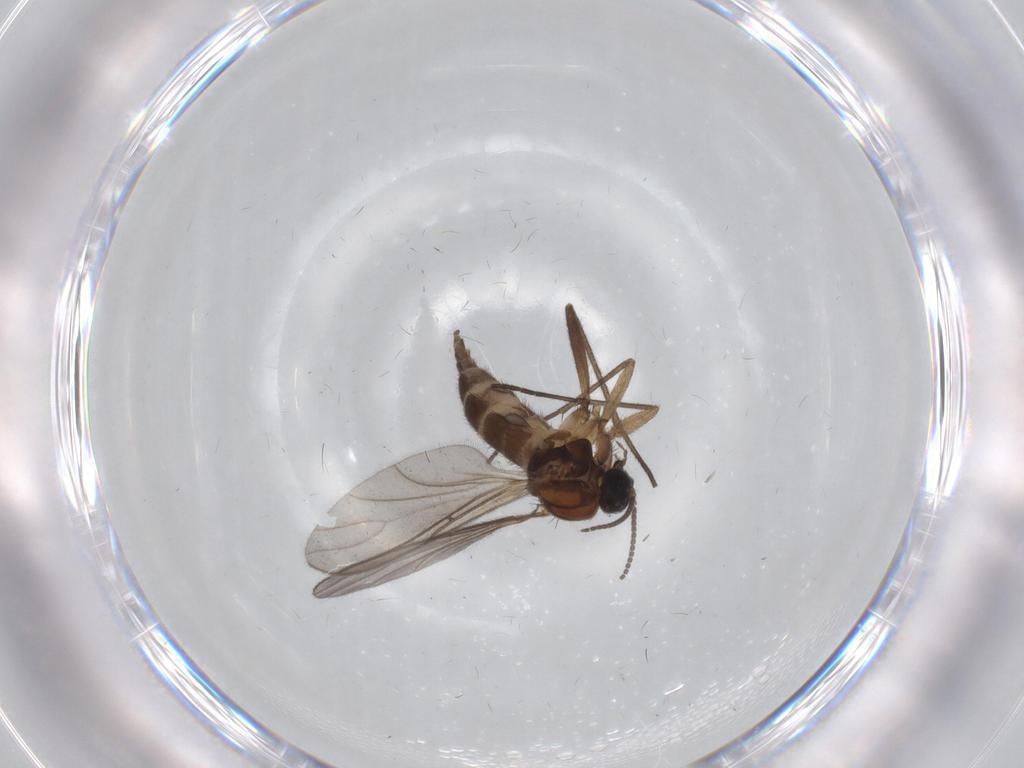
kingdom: Animalia
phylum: Arthropoda
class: Insecta
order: Diptera
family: Sciaridae
